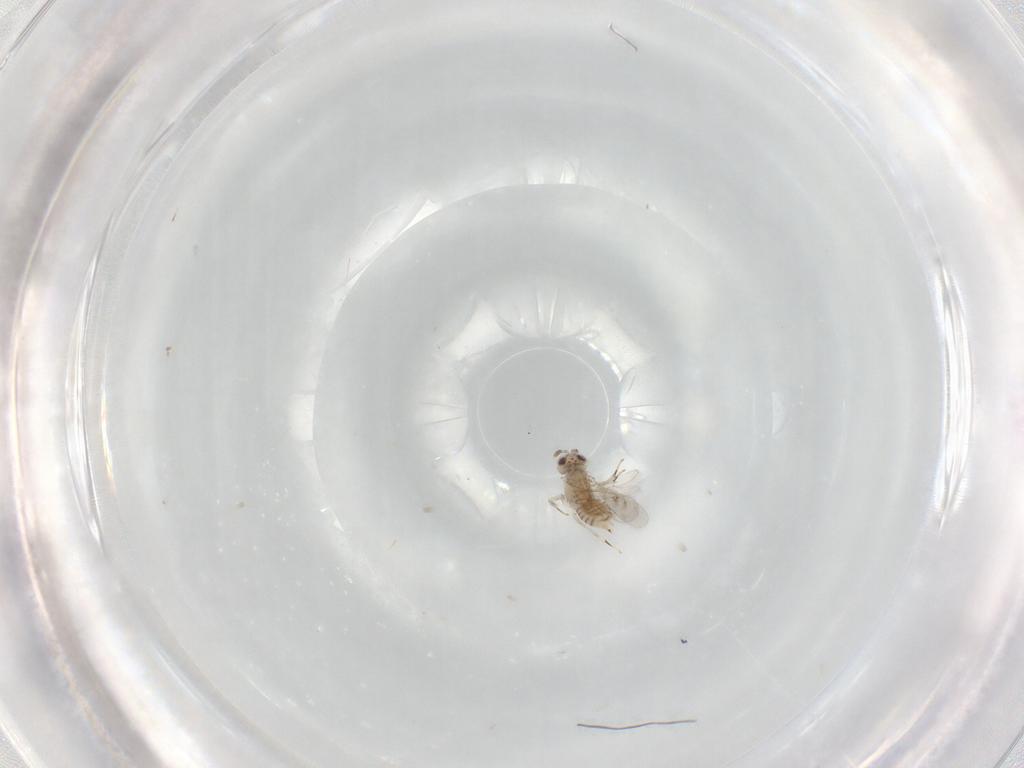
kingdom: Animalia
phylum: Arthropoda
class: Insecta
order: Hymenoptera
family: Aphelinidae
